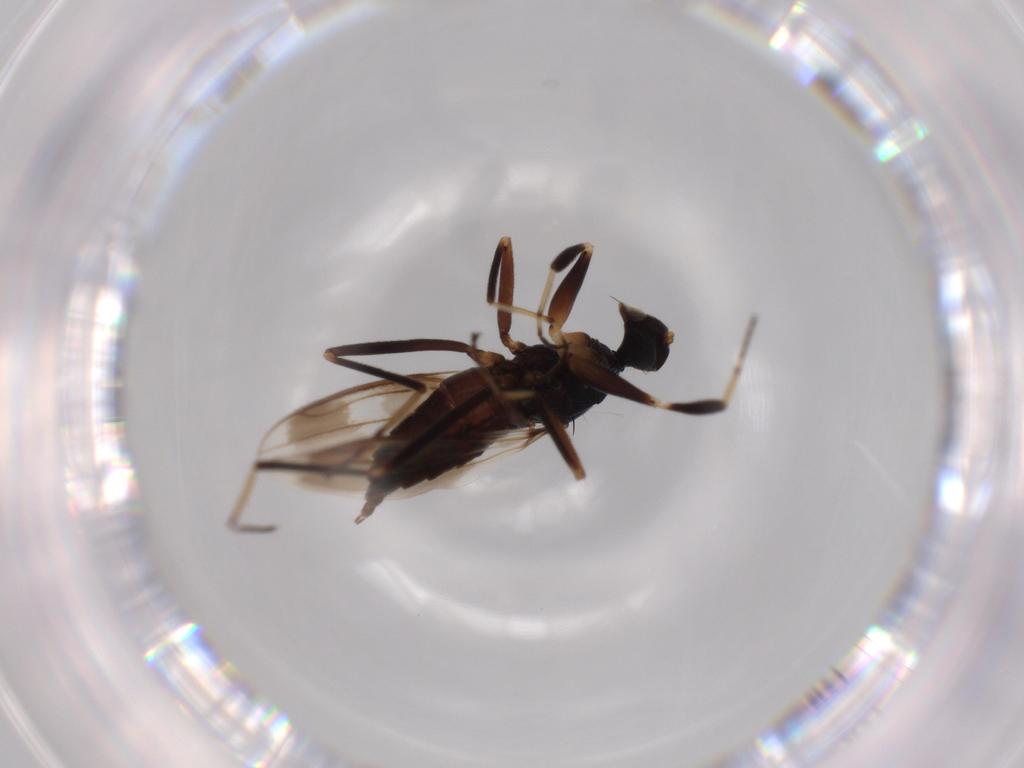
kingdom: Animalia
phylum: Arthropoda
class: Insecta
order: Diptera
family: Hybotidae
